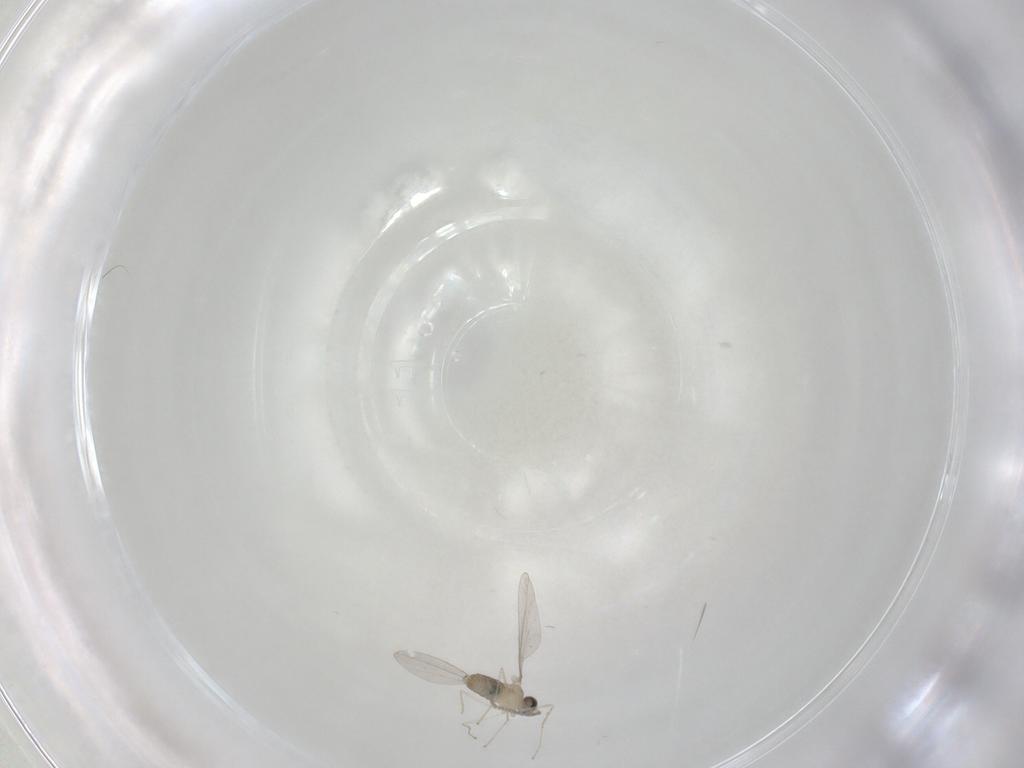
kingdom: Animalia
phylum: Arthropoda
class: Insecta
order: Diptera
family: Cecidomyiidae
